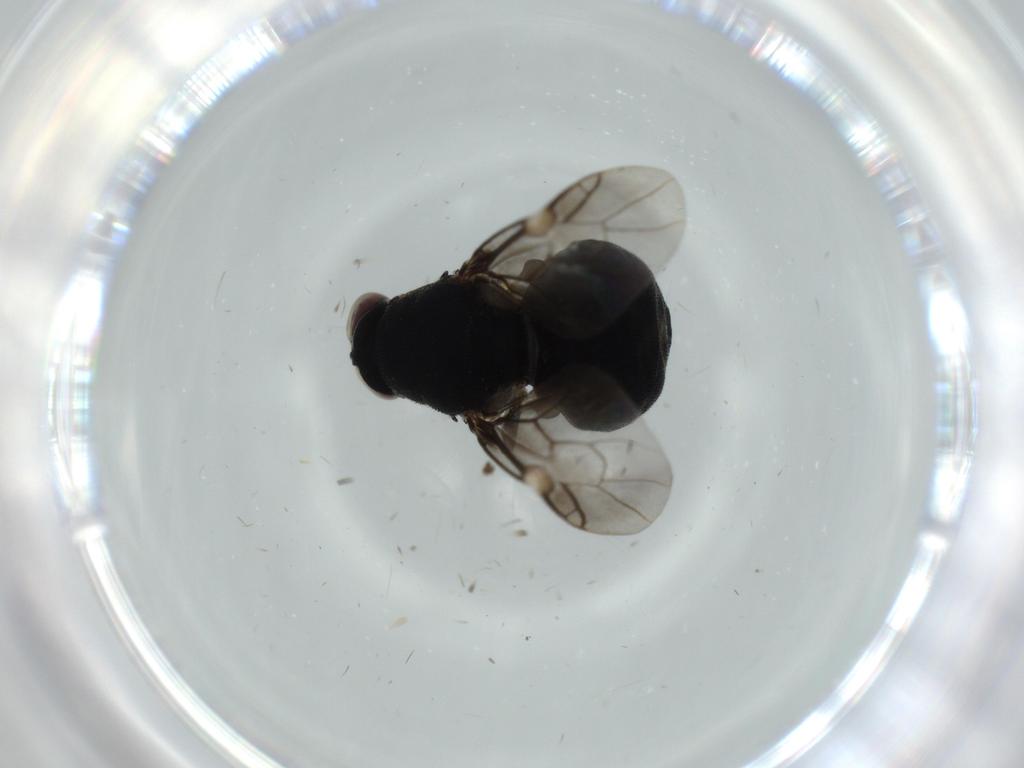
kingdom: Animalia
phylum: Arthropoda
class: Insecta
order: Diptera
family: Stratiomyidae
